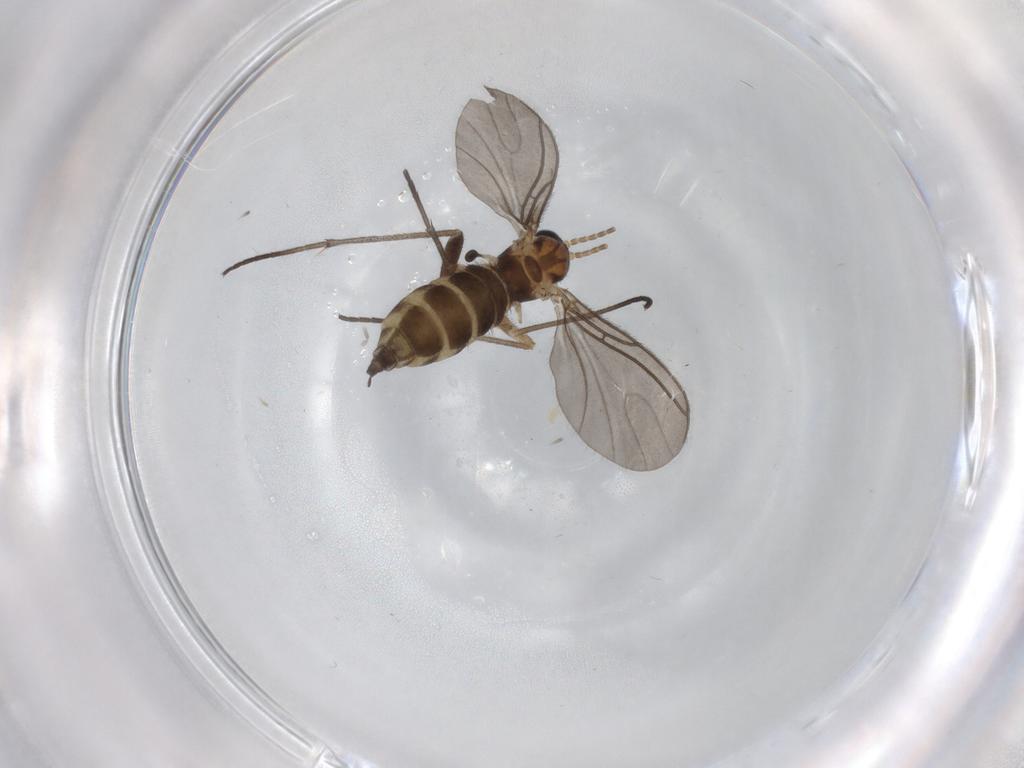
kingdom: Animalia
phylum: Arthropoda
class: Insecta
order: Diptera
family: Sciaridae
